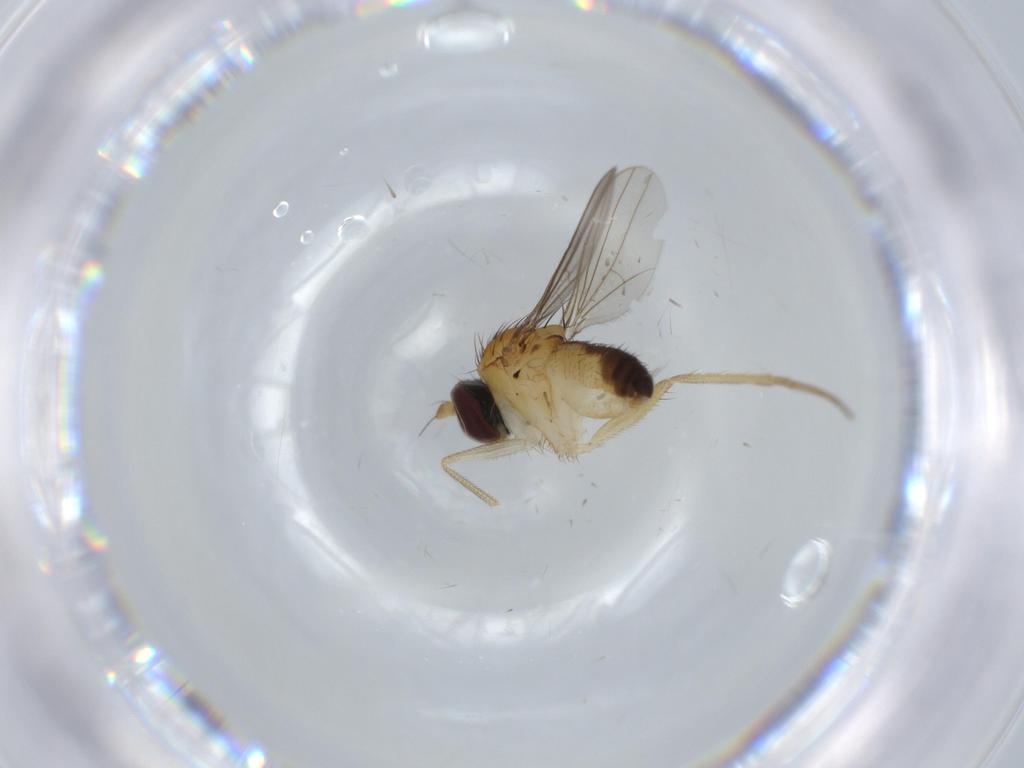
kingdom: Animalia
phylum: Arthropoda
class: Insecta
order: Diptera
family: Dolichopodidae
